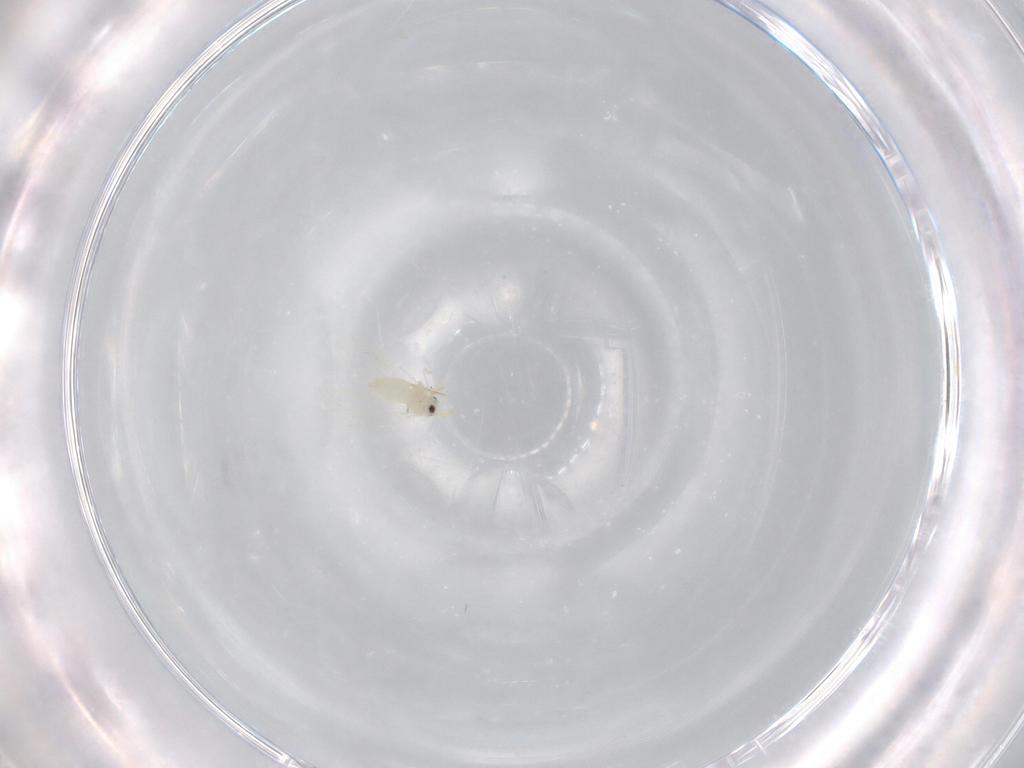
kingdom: Animalia
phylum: Arthropoda
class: Insecta
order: Hemiptera
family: Aleyrodidae
